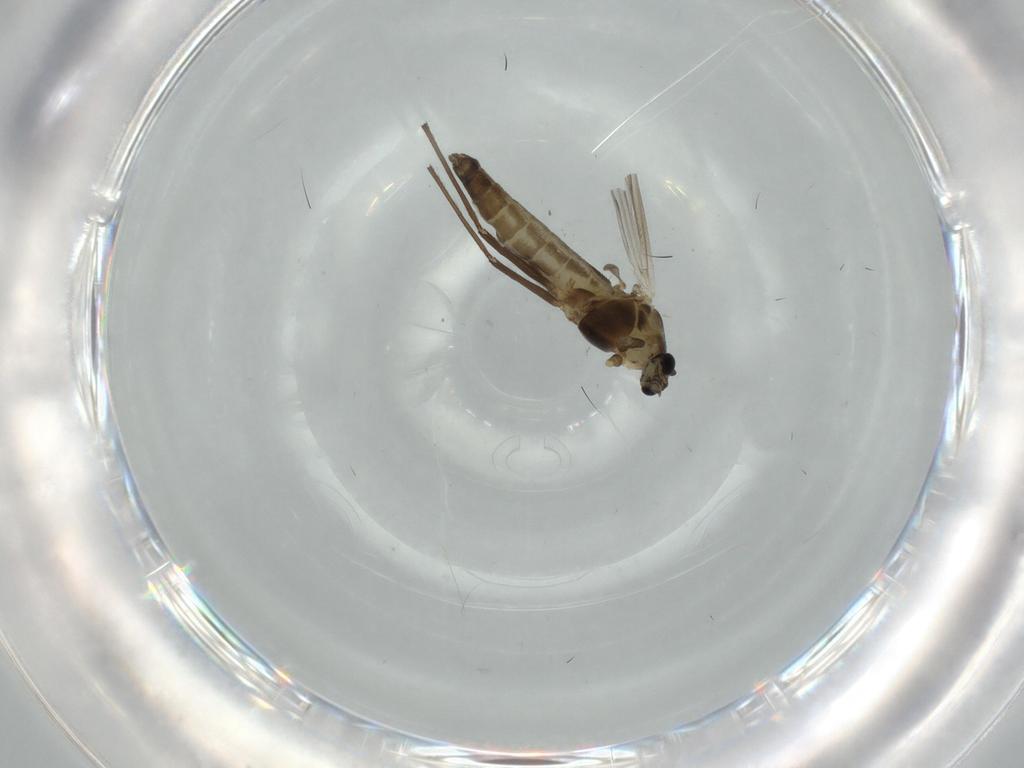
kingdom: Animalia
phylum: Arthropoda
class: Insecta
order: Diptera
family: Chironomidae
